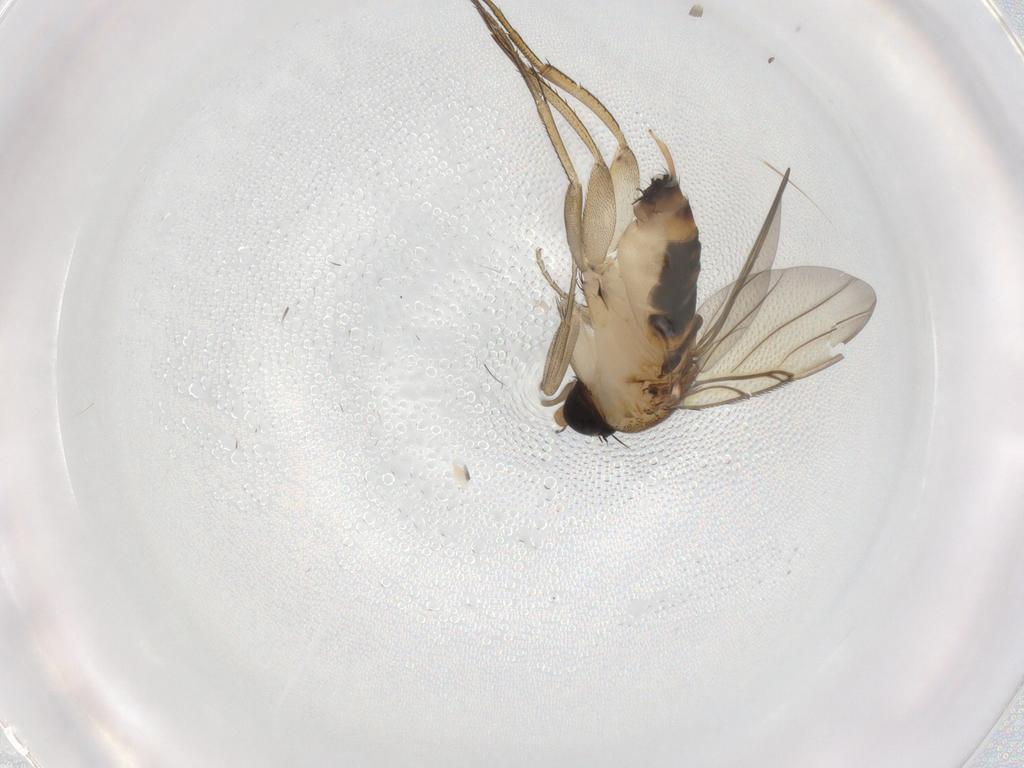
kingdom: Animalia
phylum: Arthropoda
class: Insecta
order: Diptera
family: Phoridae
